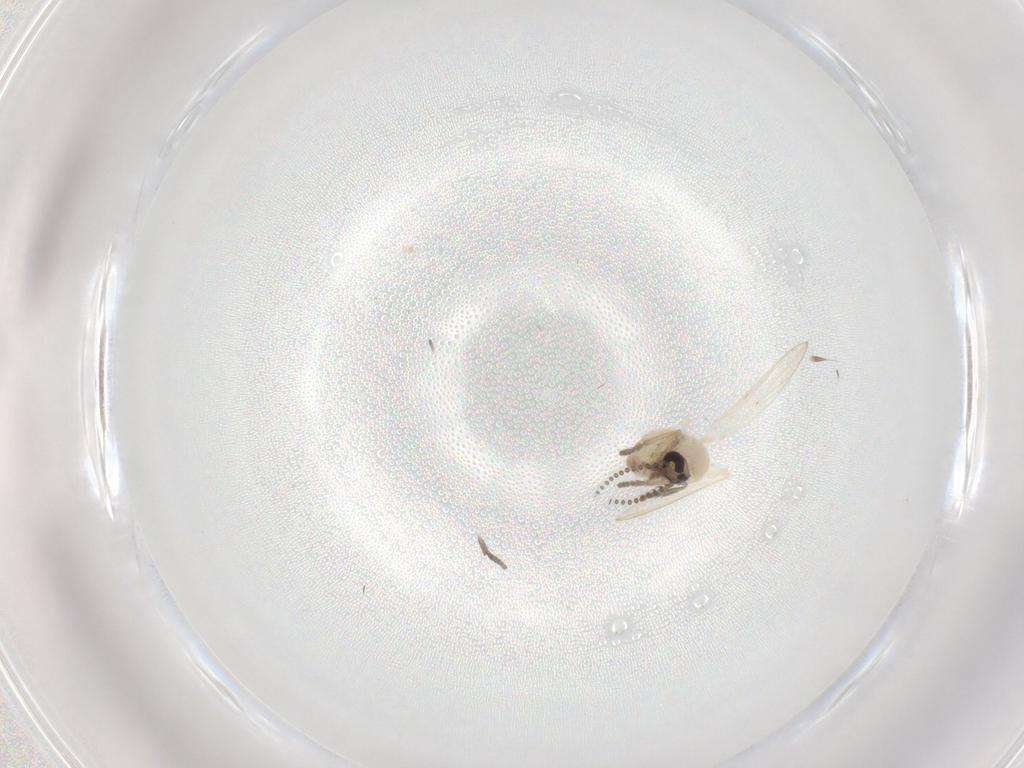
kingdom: Animalia
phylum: Arthropoda
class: Insecta
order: Diptera
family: Psychodidae
